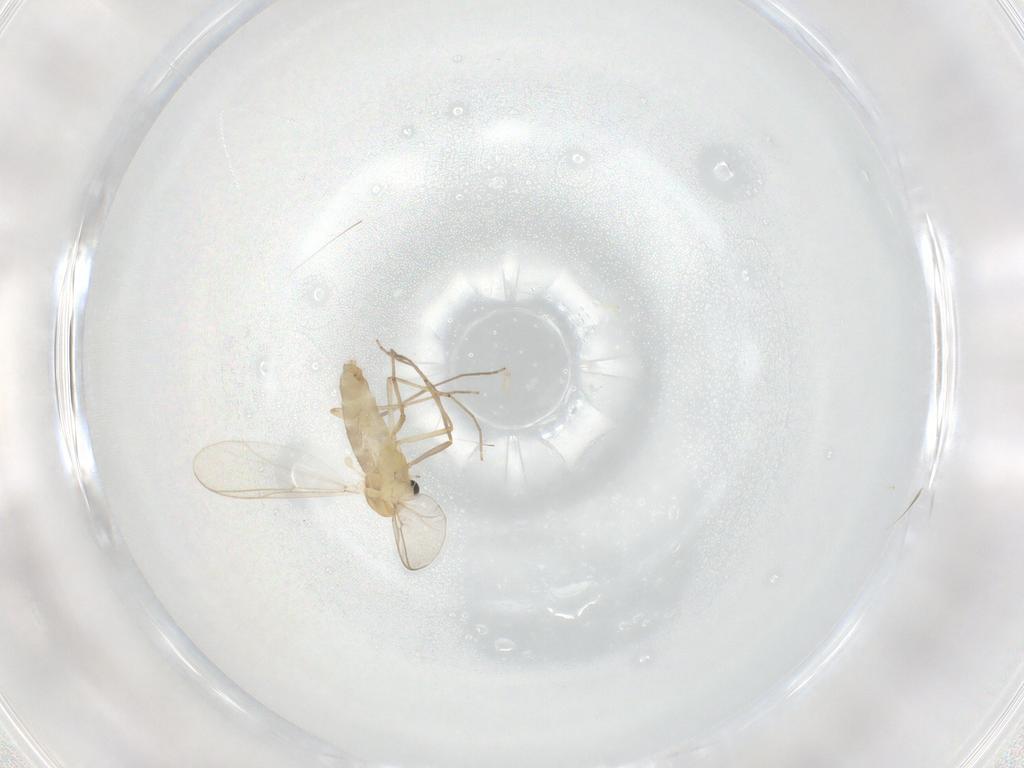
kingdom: Animalia
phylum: Arthropoda
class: Insecta
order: Diptera
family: Chironomidae
